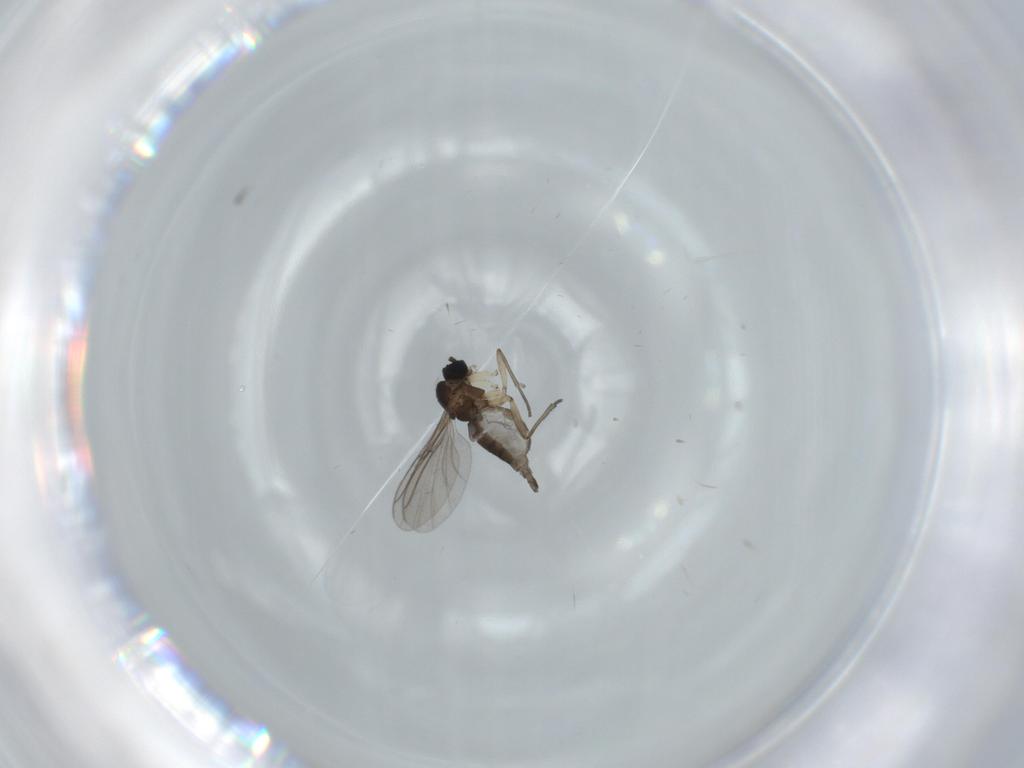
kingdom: Animalia
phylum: Arthropoda
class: Insecta
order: Diptera
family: Sciaridae
